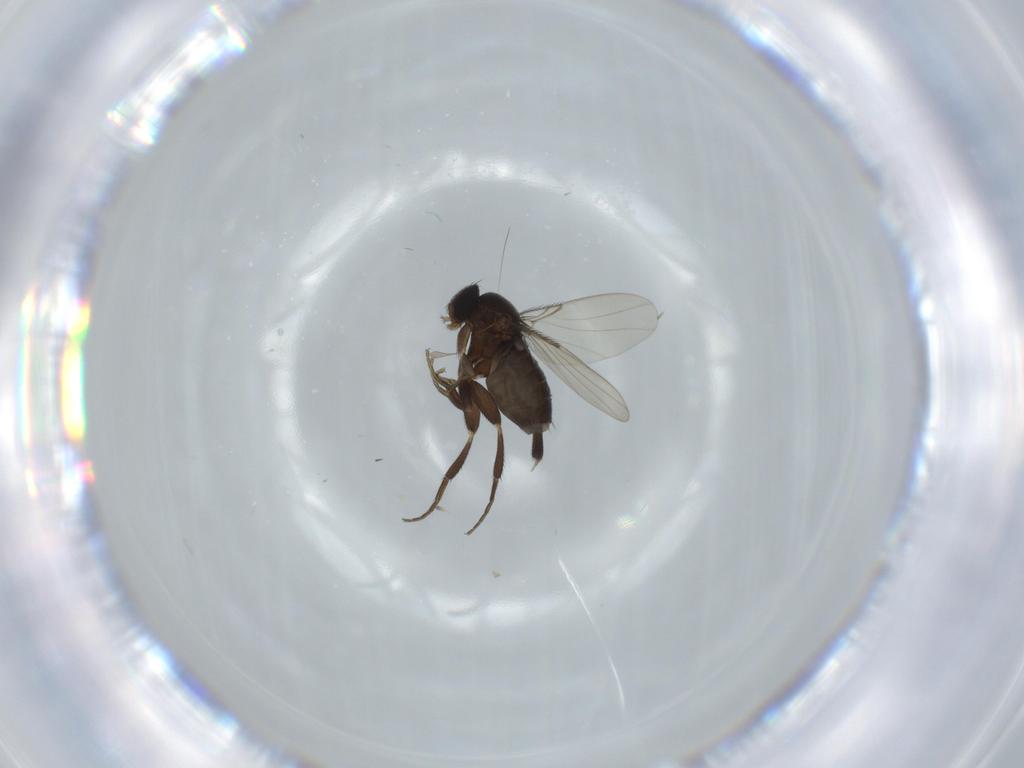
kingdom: Animalia
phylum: Arthropoda
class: Insecta
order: Diptera
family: Phoridae
